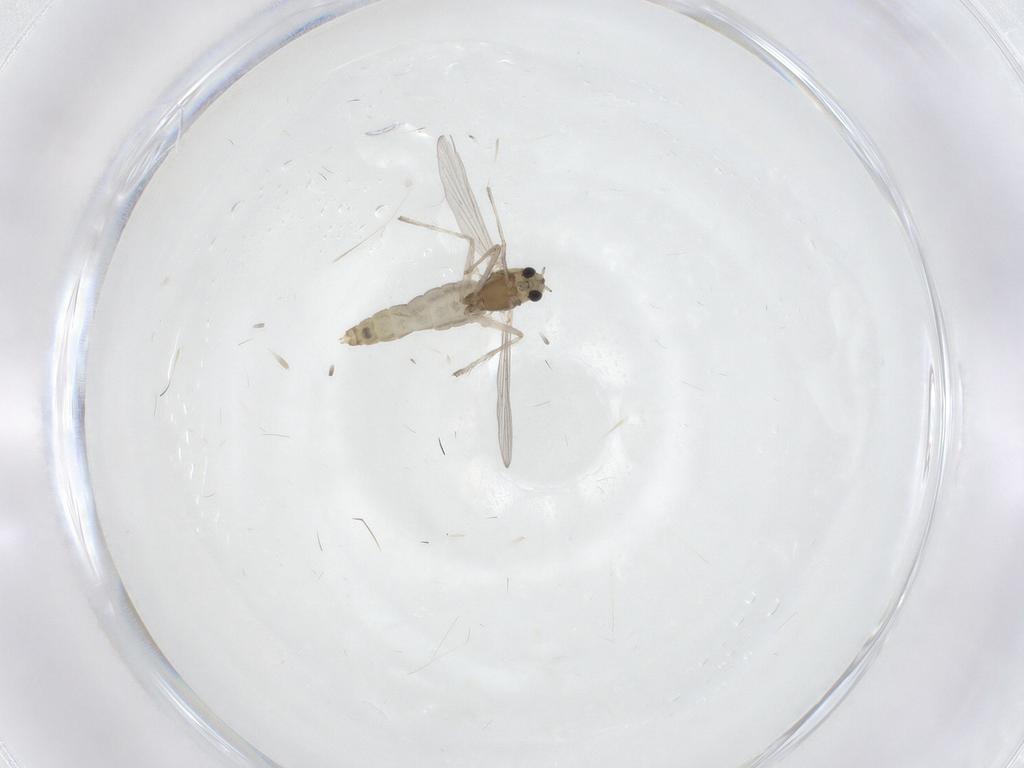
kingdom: Animalia
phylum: Arthropoda
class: Insecta
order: Diptera
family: Chironomidae
